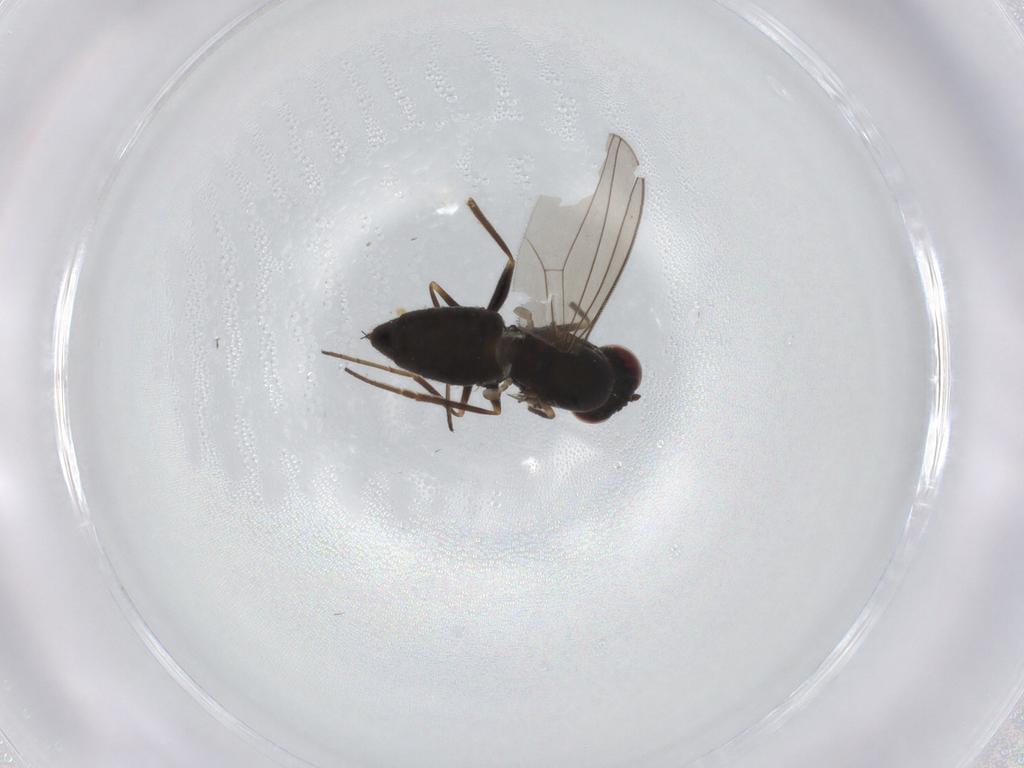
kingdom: Animalia
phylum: Arthropoda
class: Insecta
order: Diptera
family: Dolichopodidae
